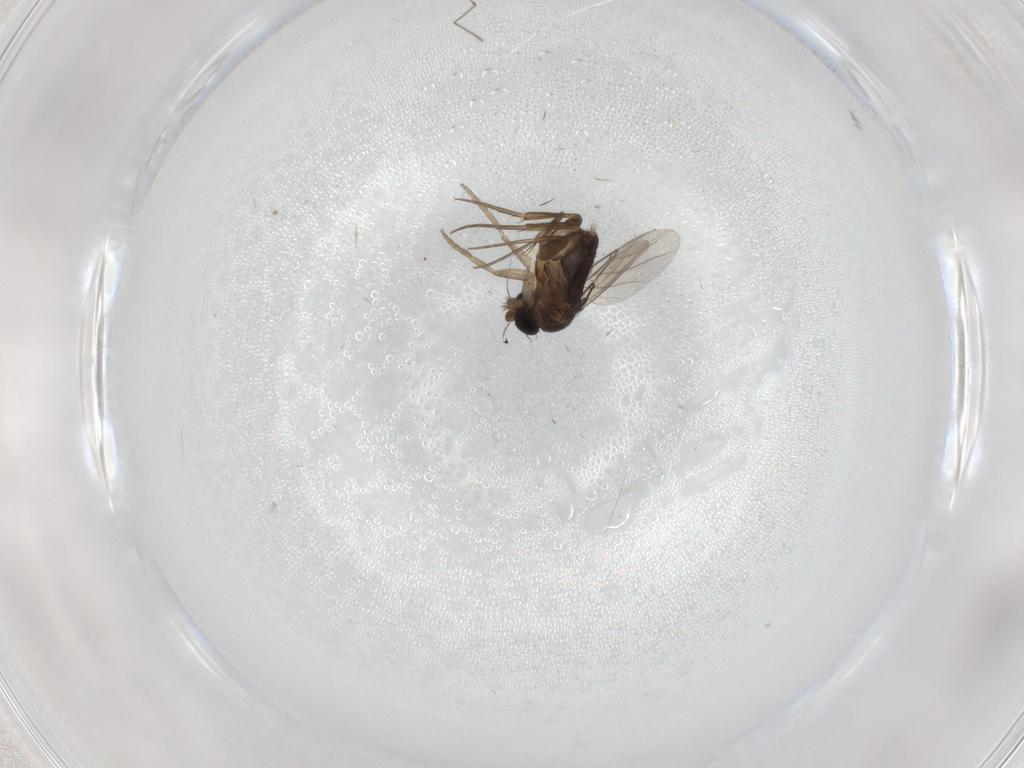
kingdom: Animalia
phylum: Arthropoda
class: Insecta
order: Diptera
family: Phoridae
